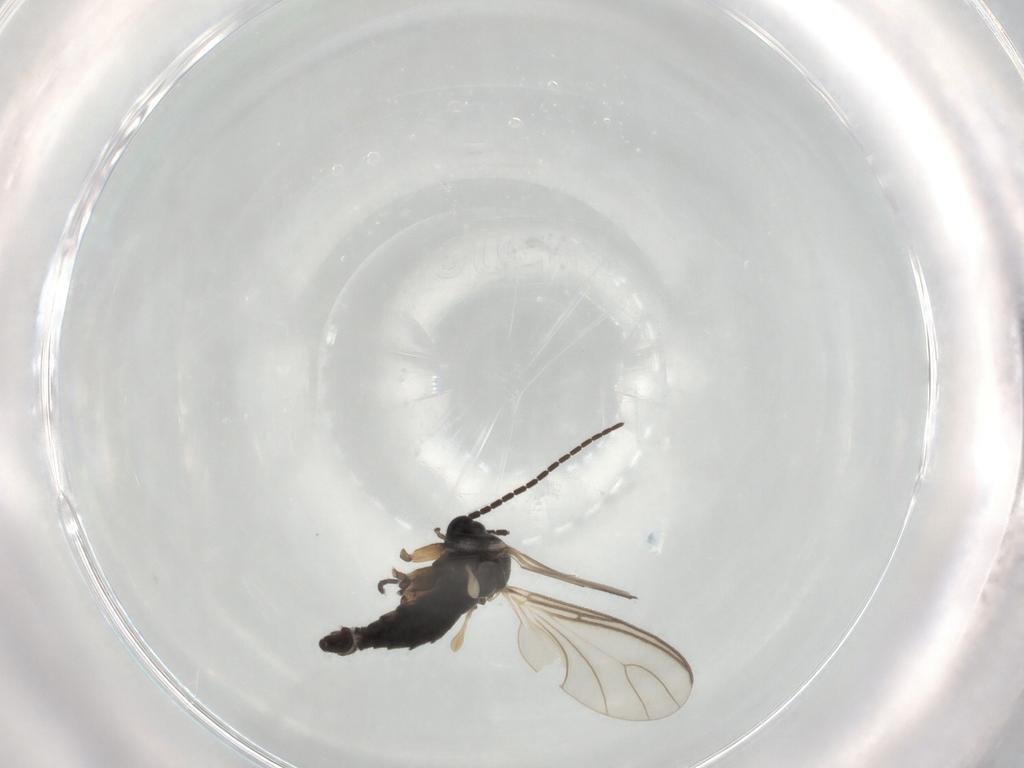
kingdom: Animalia
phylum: Arthropoda
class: Insecta
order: Diptera
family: Sciaridae
